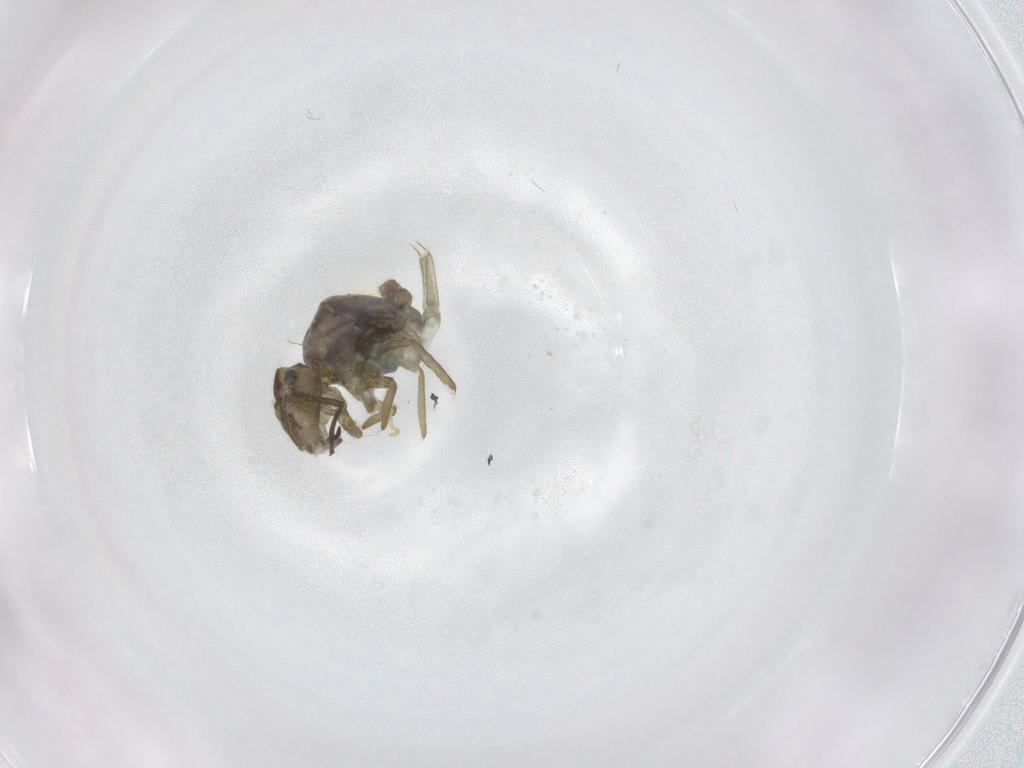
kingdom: Animalia
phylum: Arthropoda
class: Collembola
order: Symphypleona
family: Sminthuridae
